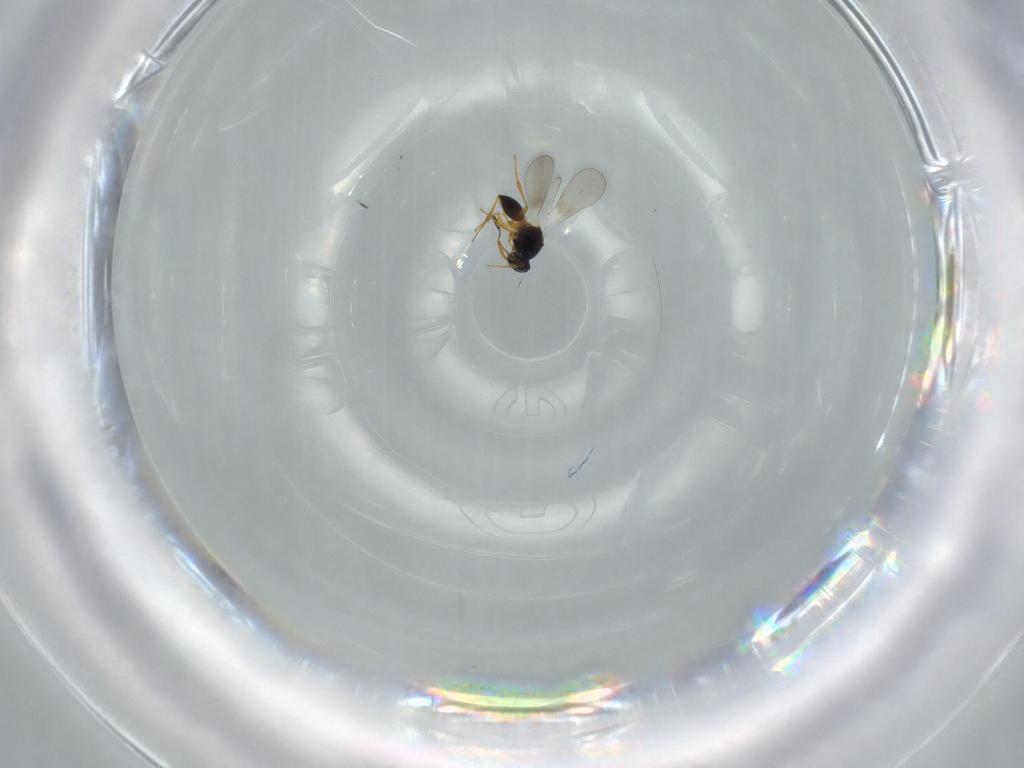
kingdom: Animalia
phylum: Arthropoda
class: Insecta
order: Hymenoptera
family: Platygastridae
